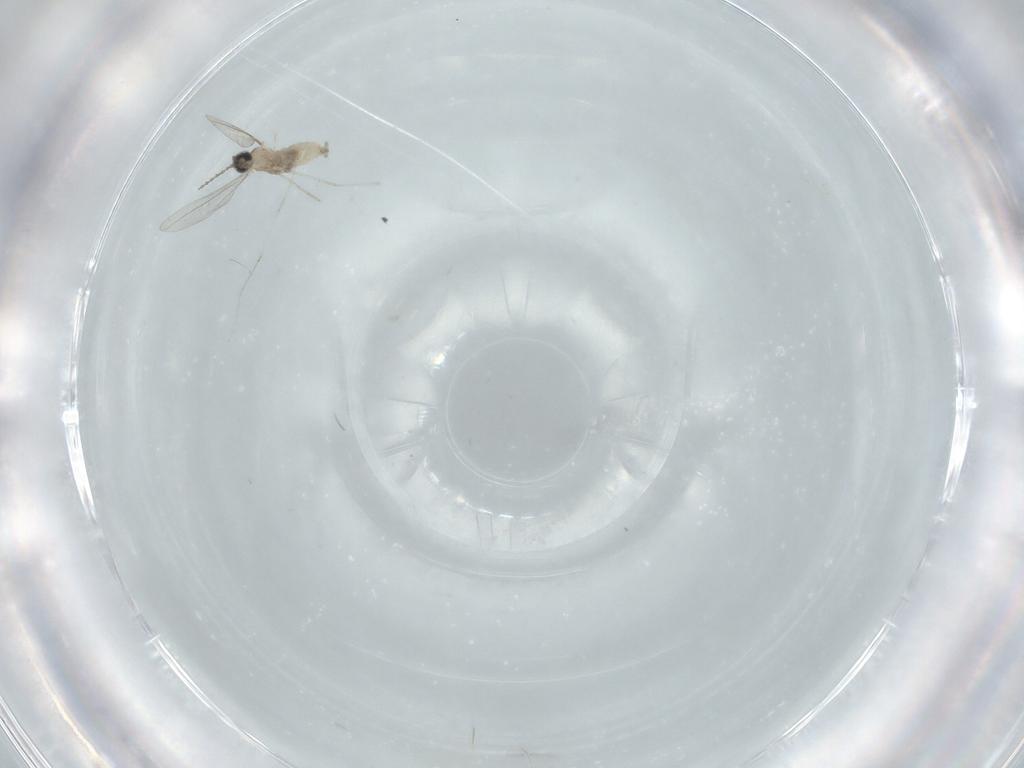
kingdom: Animalia
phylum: Arthropoda
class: Insecta
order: Diptera
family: Cecidomyiidae
